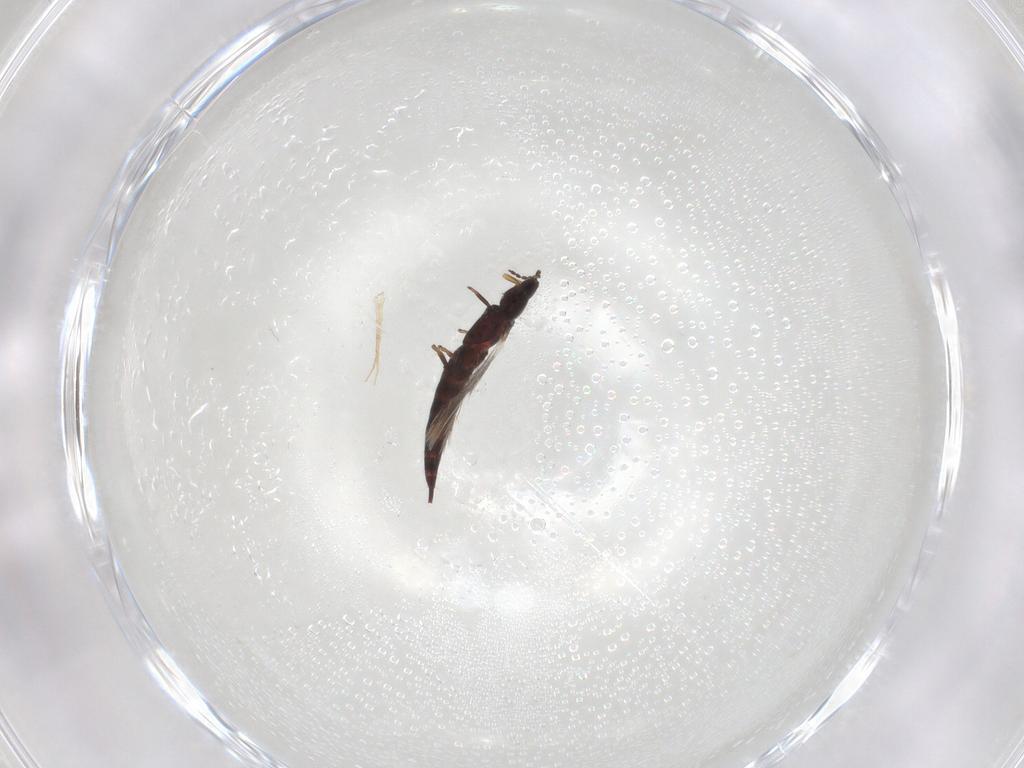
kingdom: Animalia
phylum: Arthropoda
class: Insecta
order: Thysanoptera
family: Phlaeothripidae
